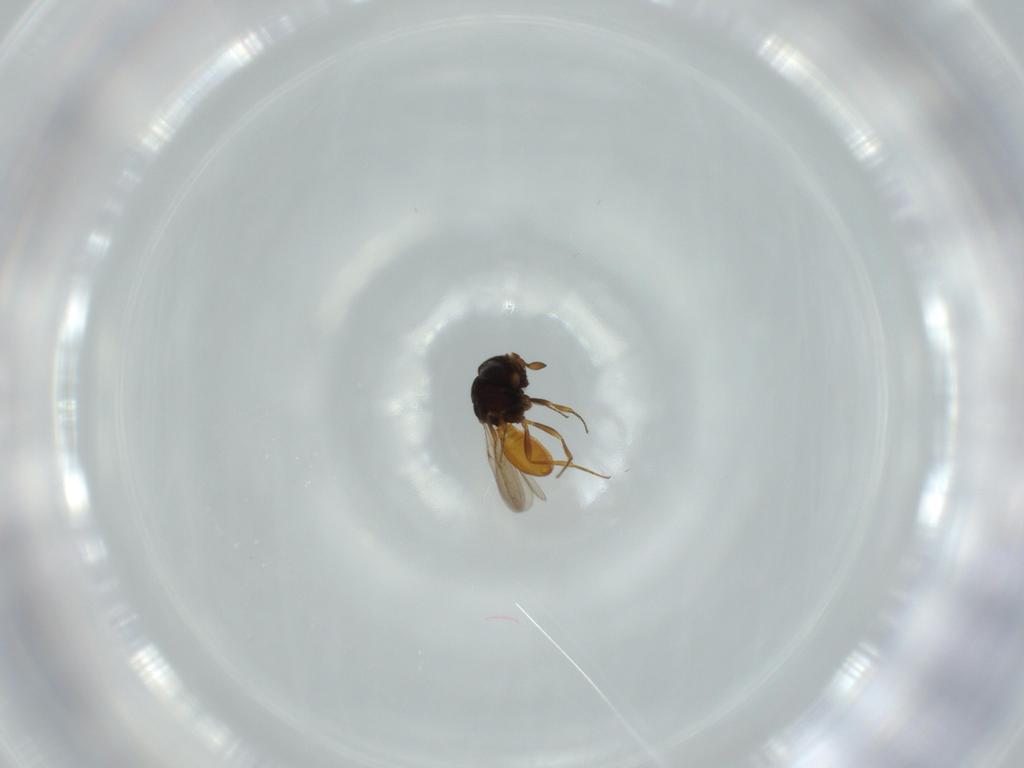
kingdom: Animalia
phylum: Arthropoda
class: Insecta
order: Hymenoptera
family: Scelionidae
